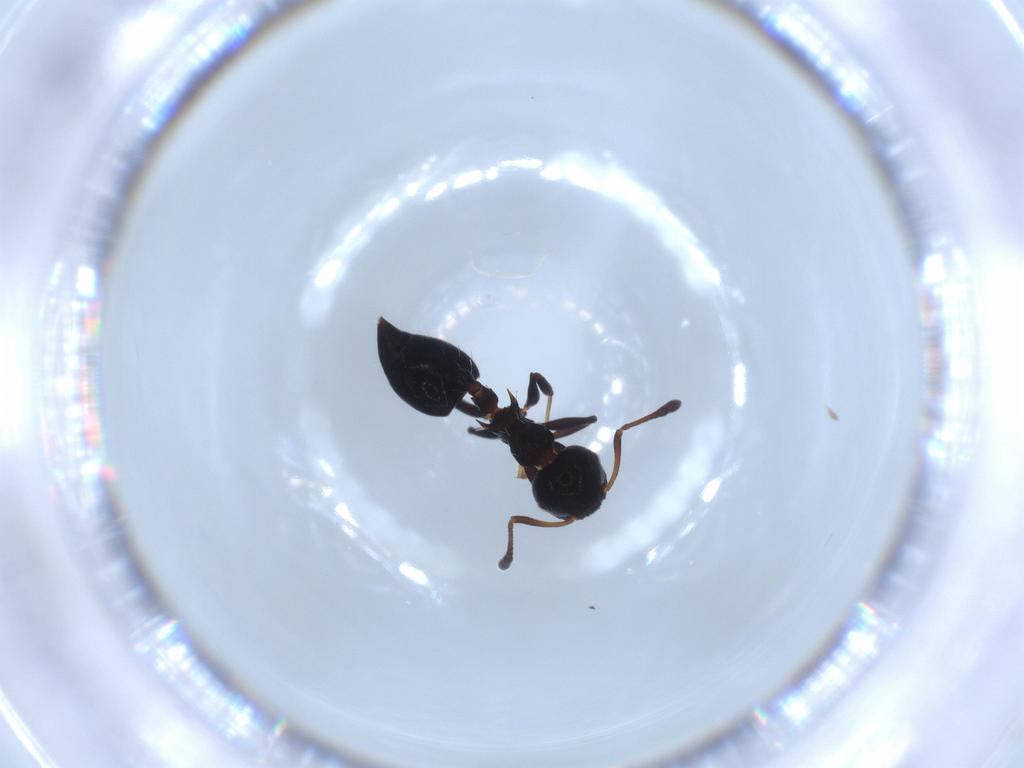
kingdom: Animalia
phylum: Arthropoda
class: Insecta
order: Hymenoptera
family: Formicidae
